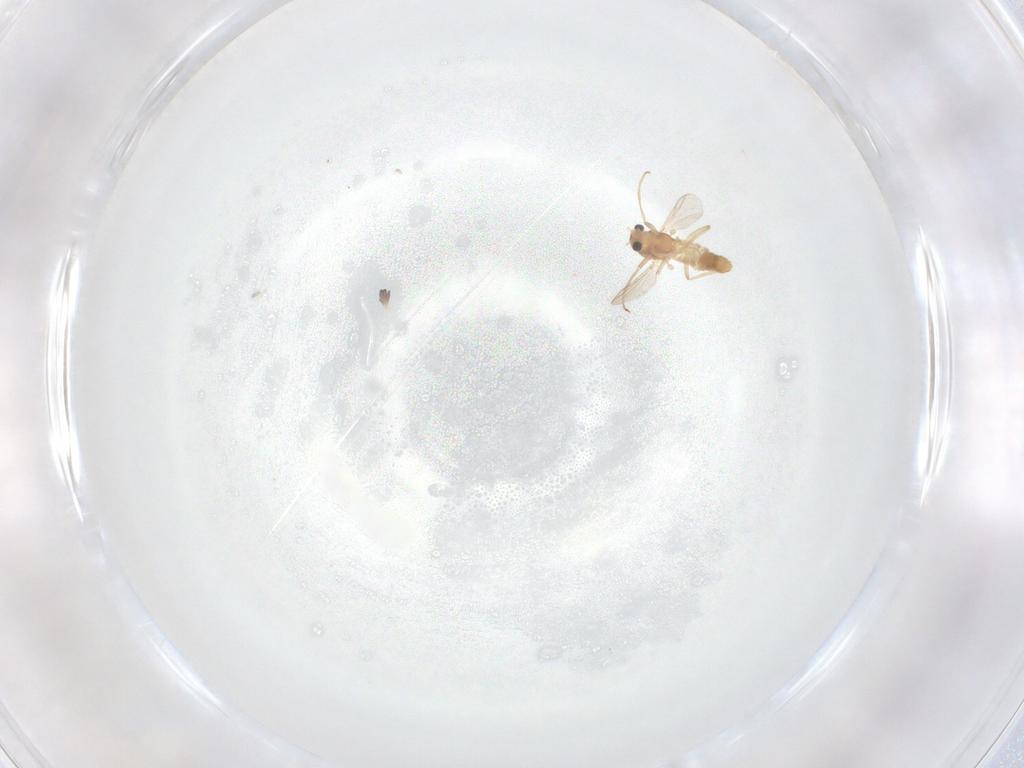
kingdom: Animalia
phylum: Arthropoda
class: Insecta
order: Diptera
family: Chironomidae
